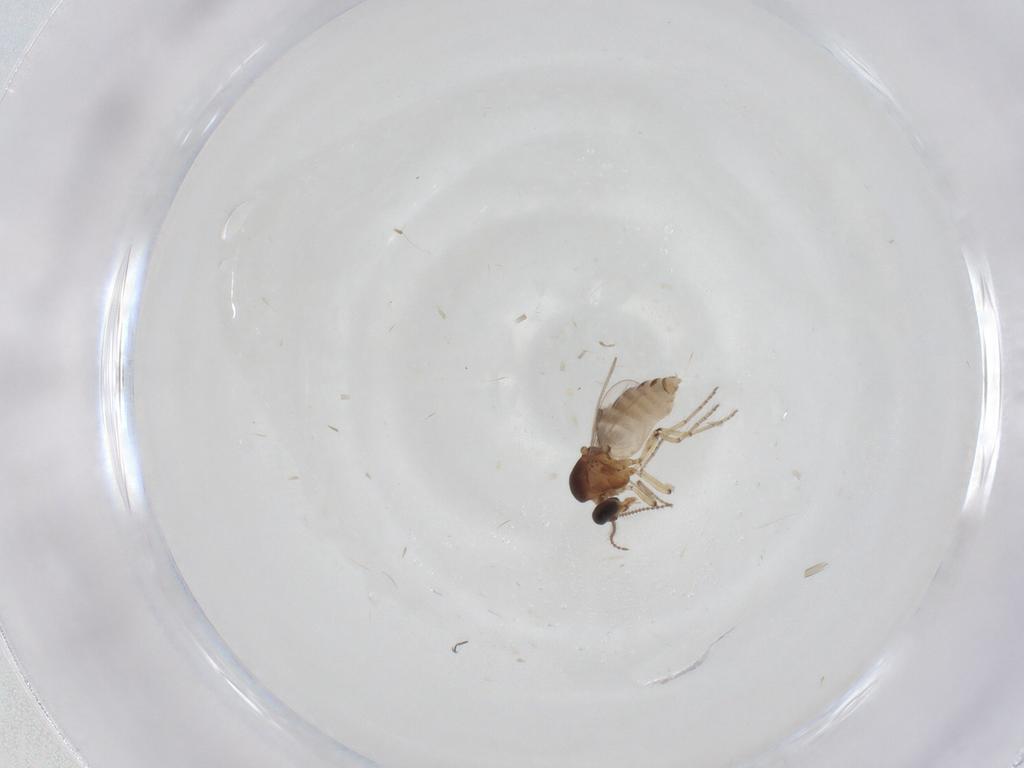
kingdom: Animalia
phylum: Arthropoda
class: Insecta
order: Diptera
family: Ceratopogonidae
